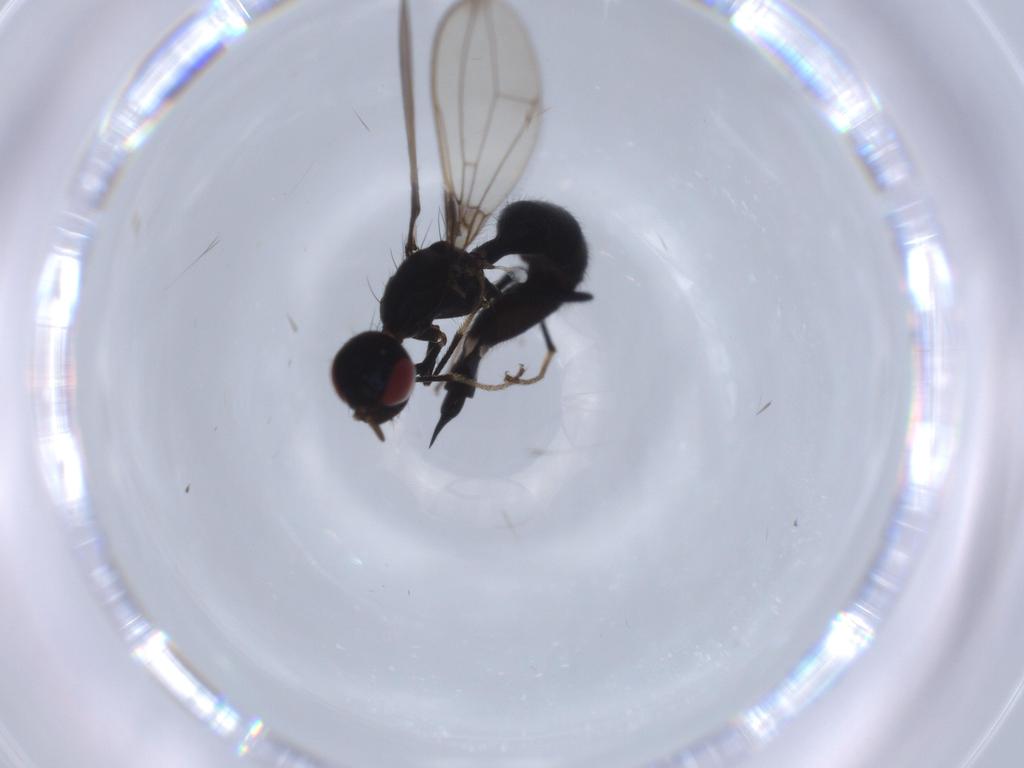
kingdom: Animalia
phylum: Arthropoda
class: Insecta
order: Diptera
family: Richardiidae
